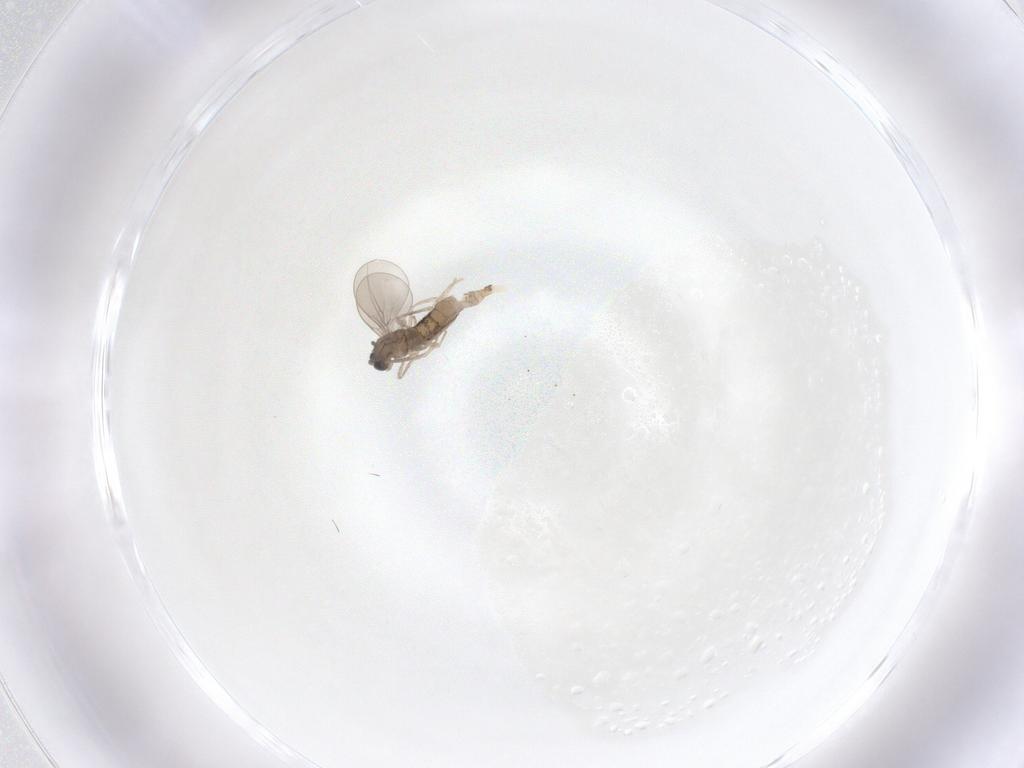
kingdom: Animalia
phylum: Arthropoda
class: Insecta
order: Diptera
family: Cecidomyiidae
